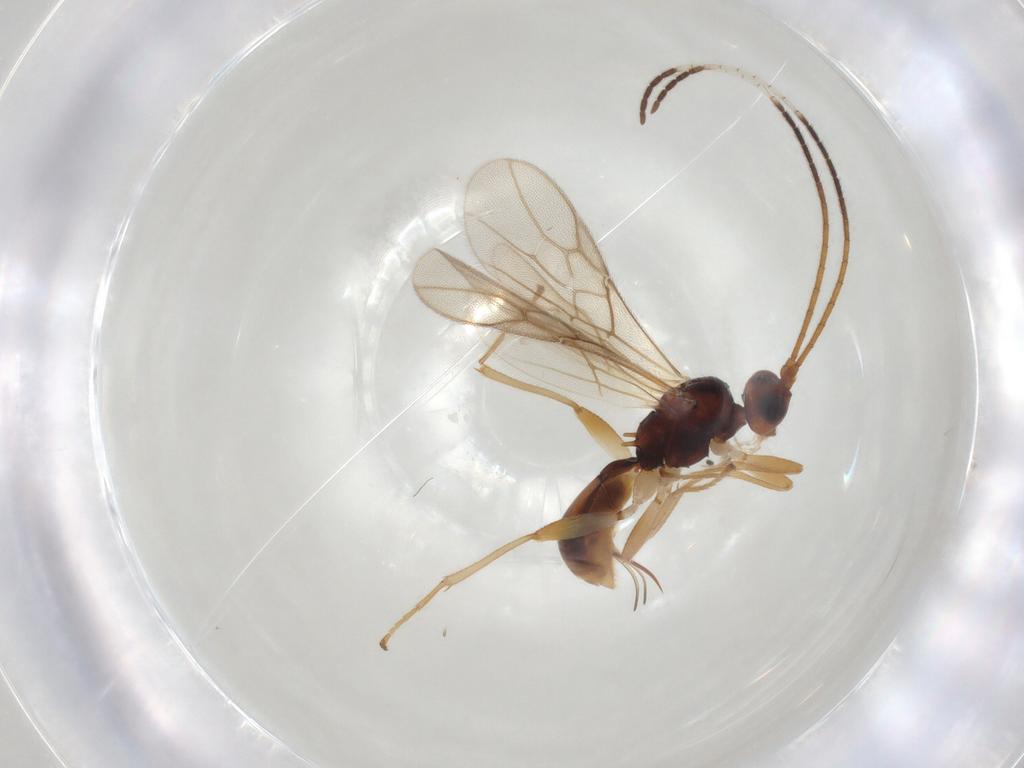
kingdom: Animalia
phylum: Arthropoda
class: Insecta
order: Hymenoptera
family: Braconidae
